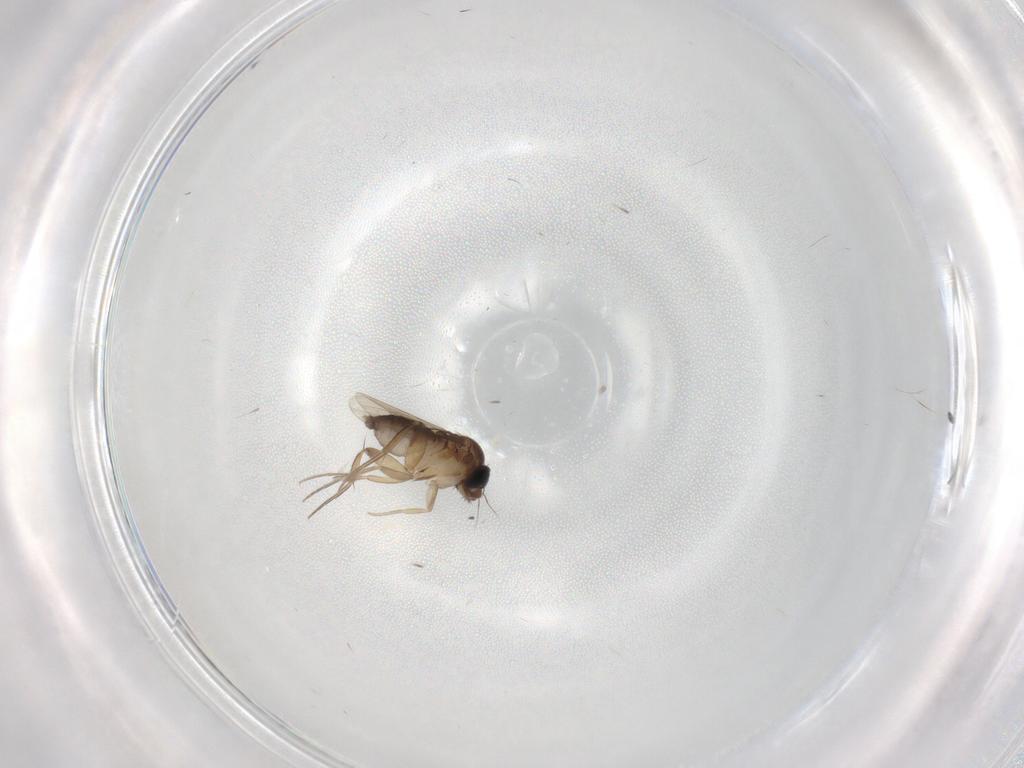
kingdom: Animalia
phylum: Arthropoda
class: Insecta
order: Diptera
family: Phoridae
